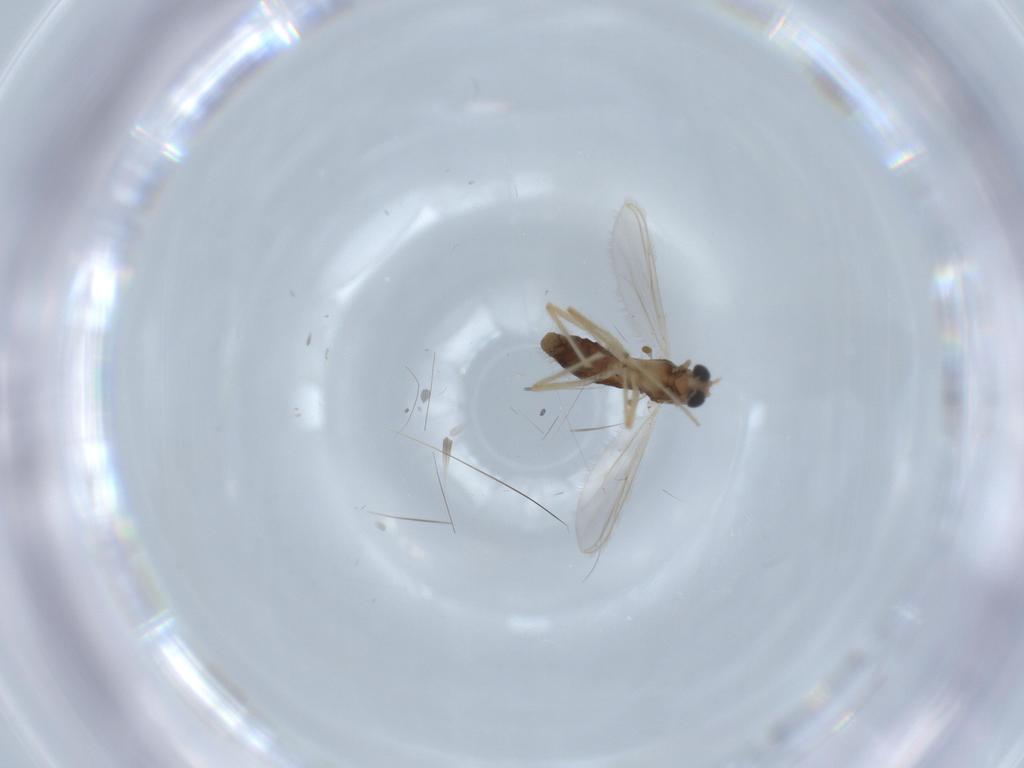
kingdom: Animalia
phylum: Arthropoda
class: Insecta
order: Diptera
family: Chironomidae
